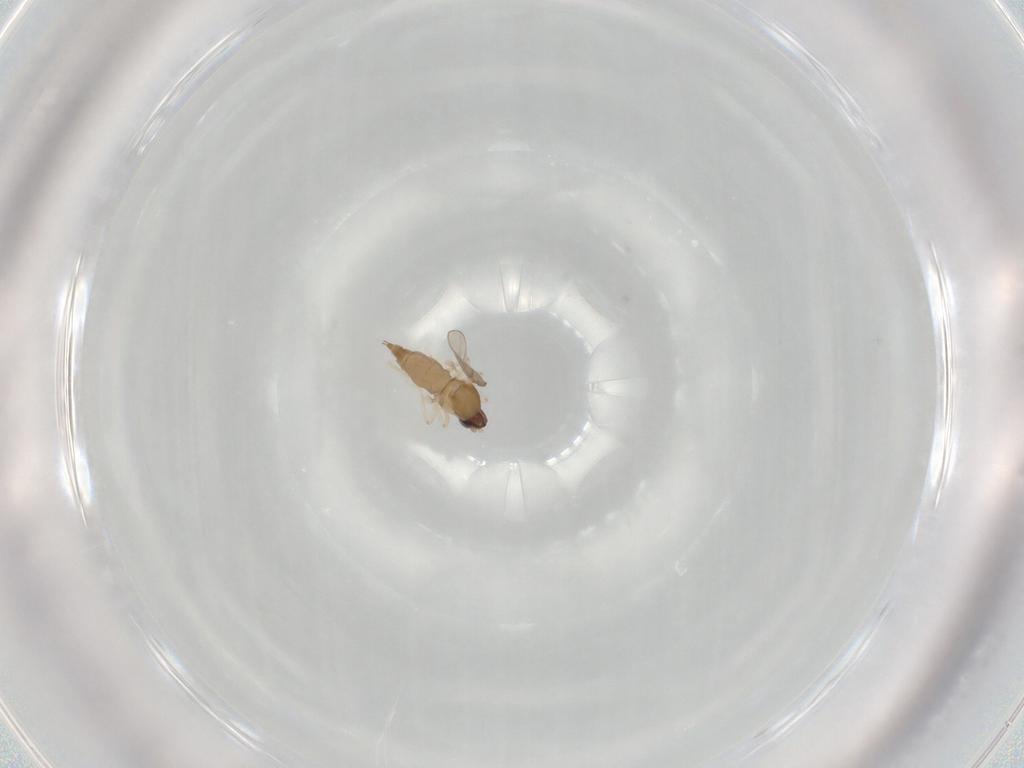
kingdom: Animalia
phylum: Arthropoda
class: Insecta
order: Diptera
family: Cecidomyiidae
